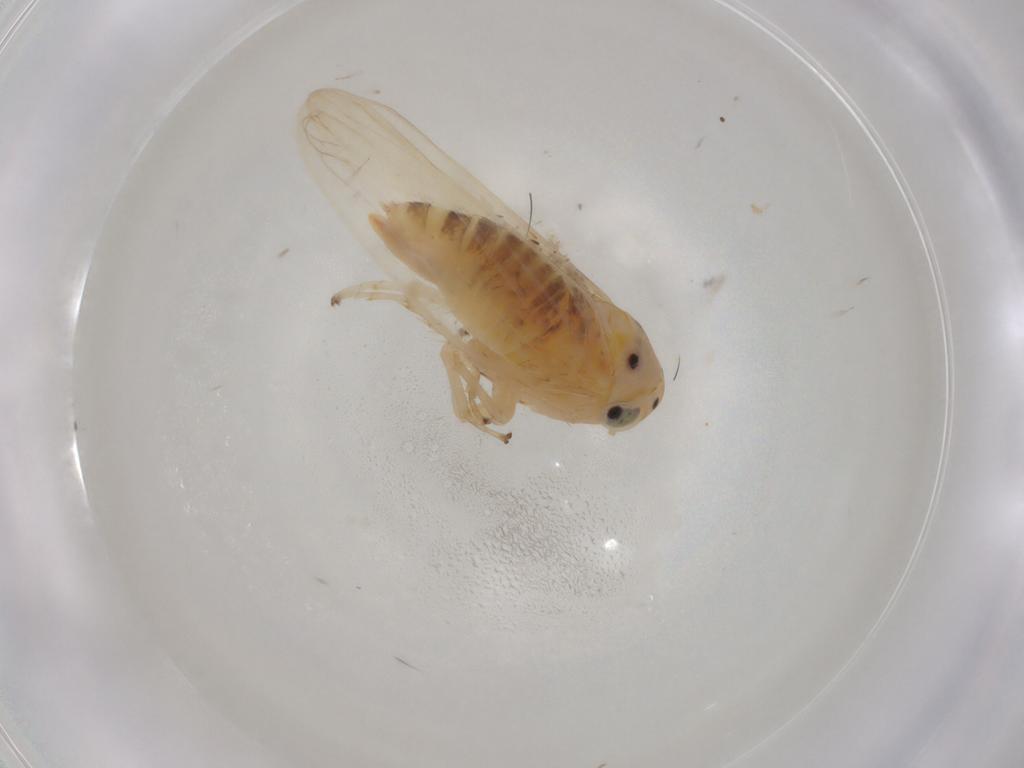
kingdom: Animalia
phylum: Arthropoda
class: Insecta
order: Hemiptera
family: Cicadellidae
